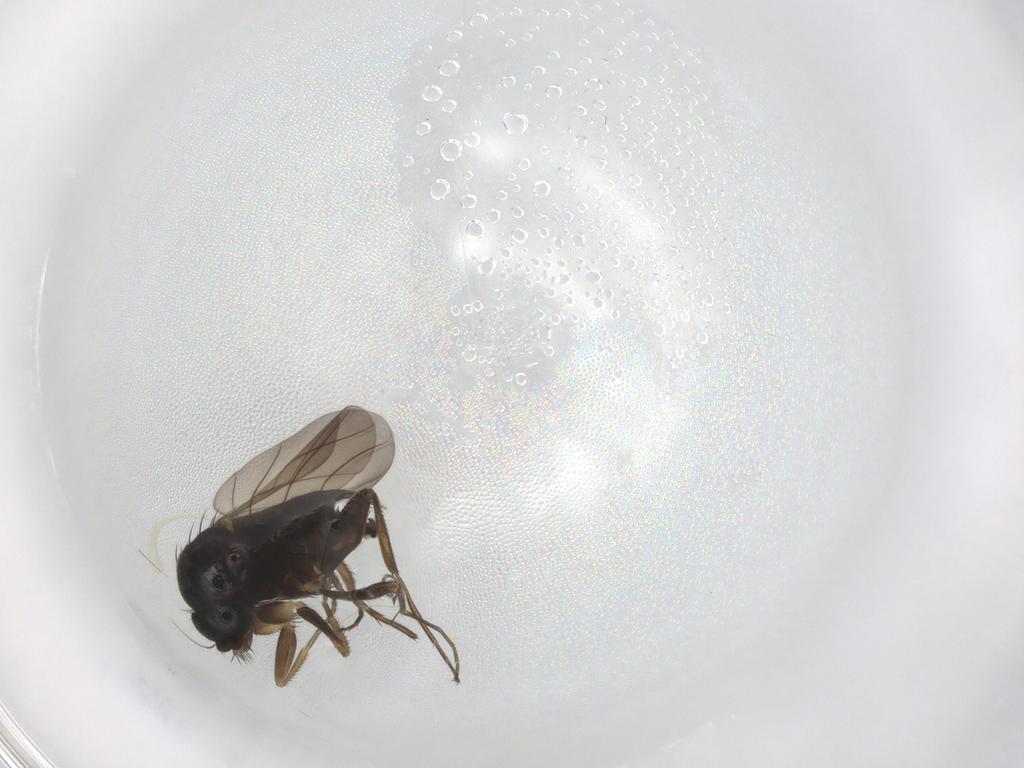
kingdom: Animalia
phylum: Arthropoda
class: Insecta
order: Diptera
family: Phoridae
